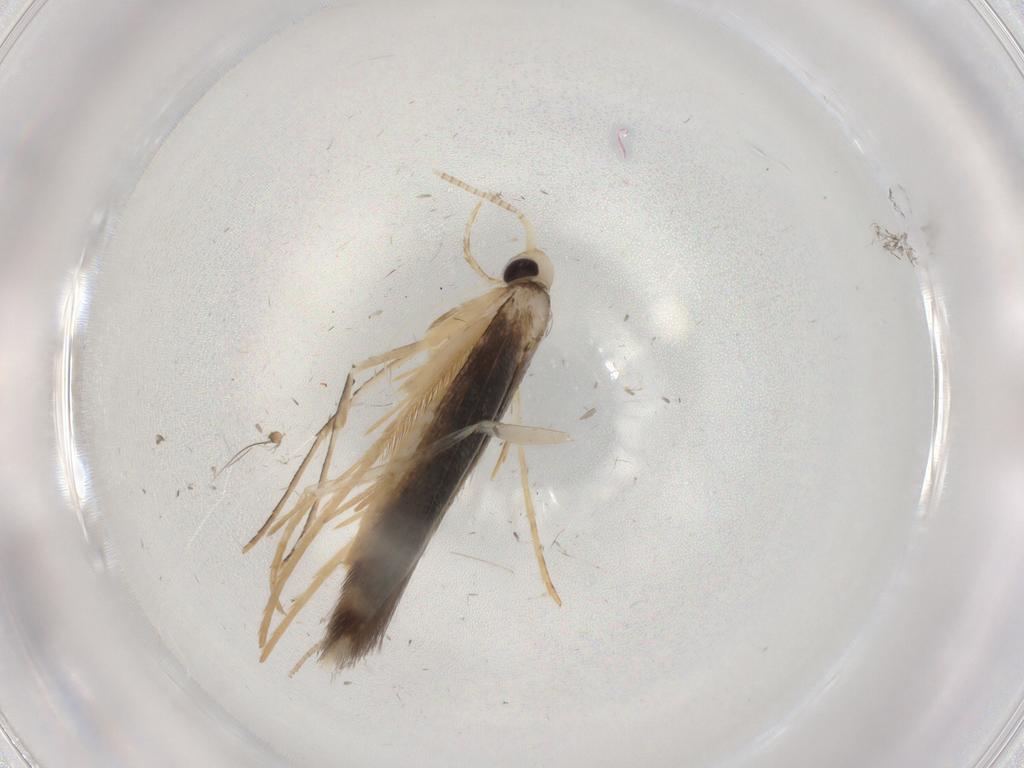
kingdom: Animalia
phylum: Arthropoda
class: Insecta
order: Lepidoptera
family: Gracillariidae
